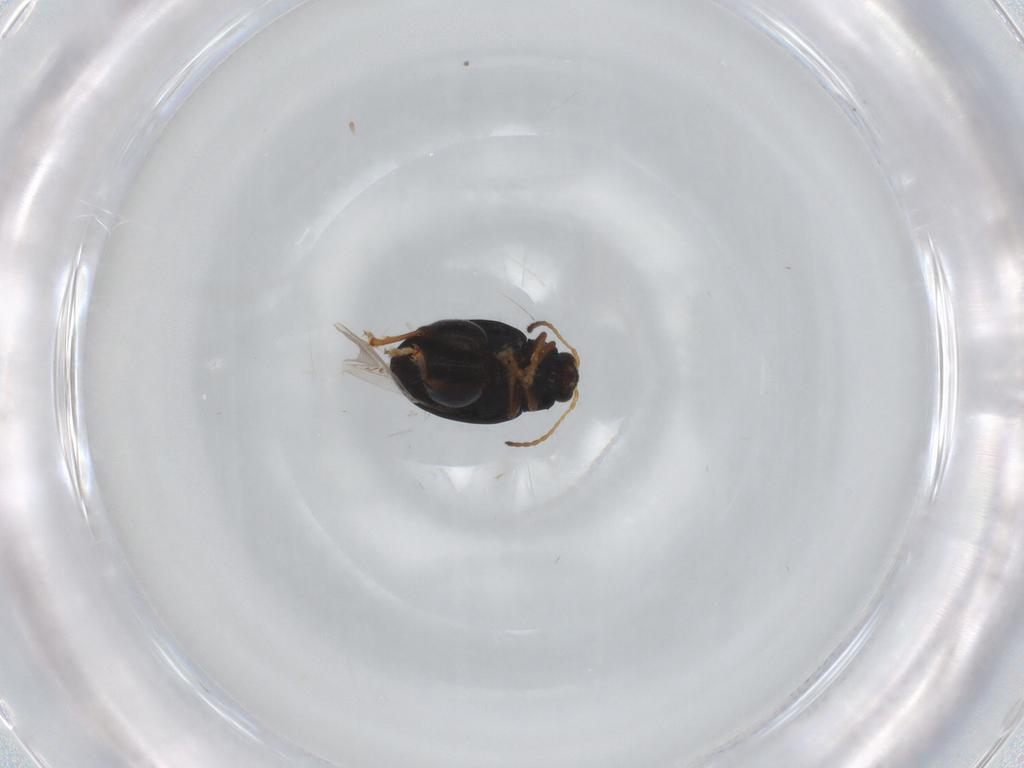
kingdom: Animalia
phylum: Arthropoda
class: Insecta
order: Coleoptera
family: Chrysomelidae
